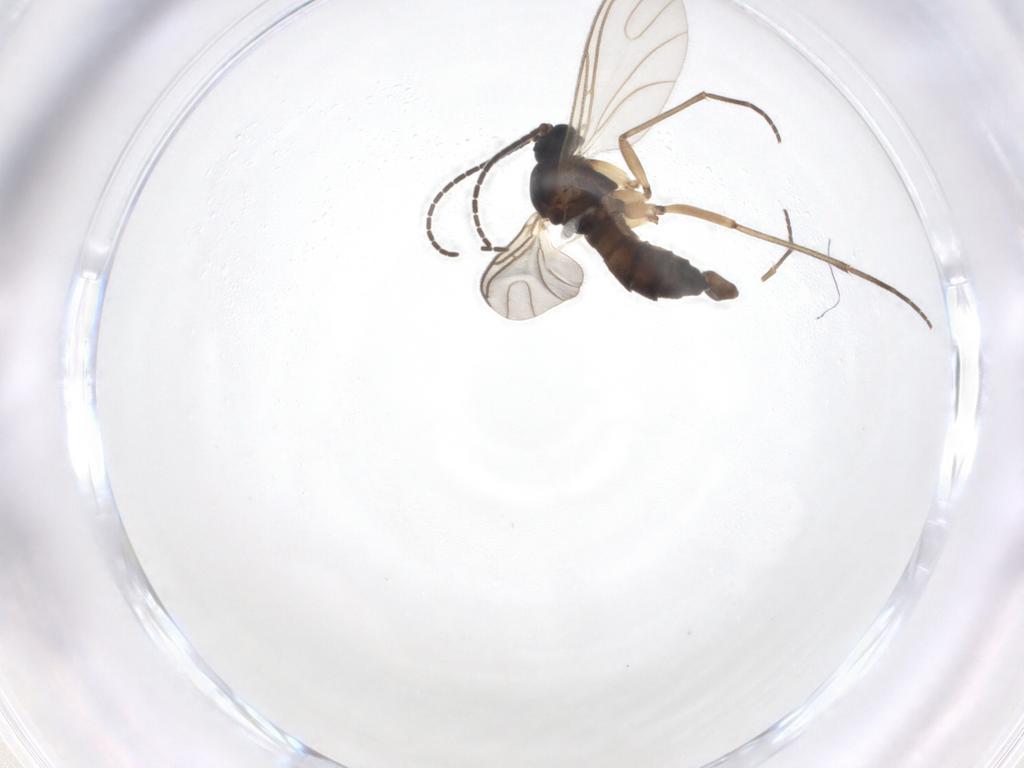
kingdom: Animalia
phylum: Arthropoda
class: Insecta
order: Diptera
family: Sciaridae
